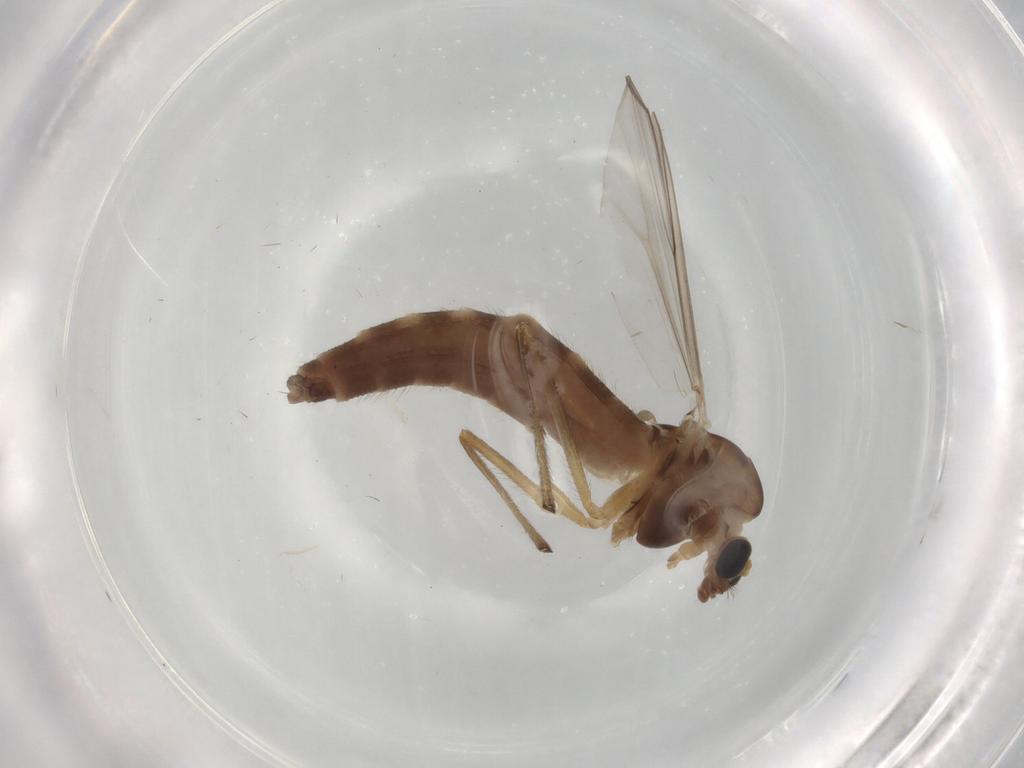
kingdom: Animalia
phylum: Arthropoda
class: Insecta
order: Diptera
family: Chironomidae
